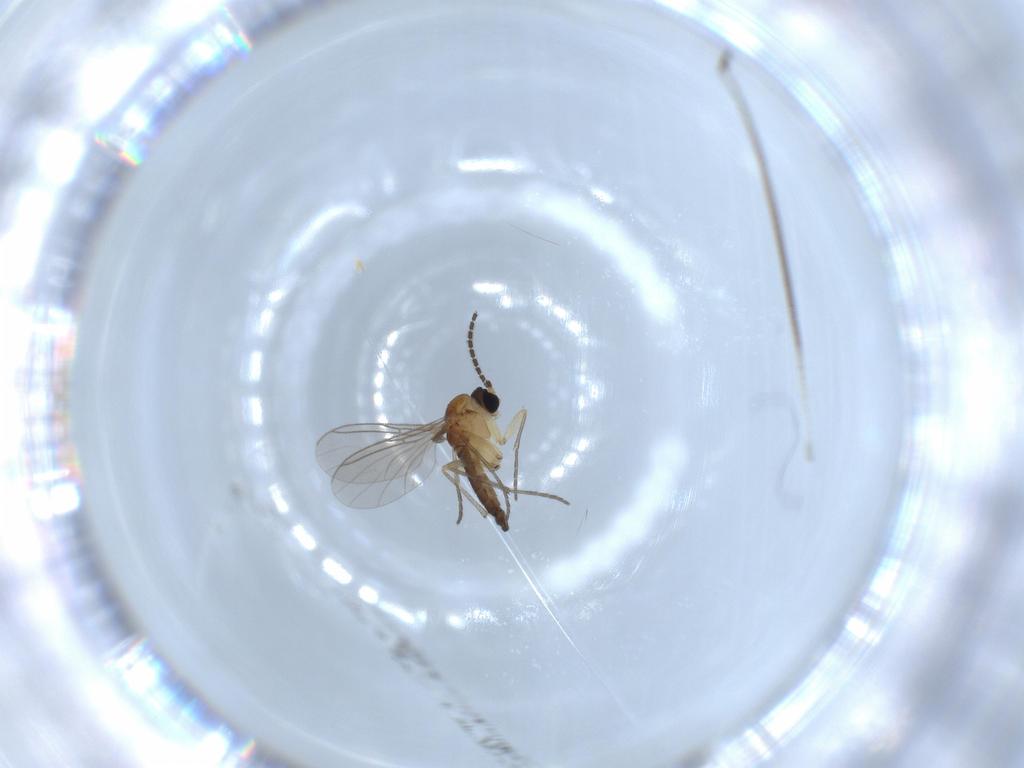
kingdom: Animalia
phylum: Arthropoda
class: Insecta
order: Diptera
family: Sciaridae
